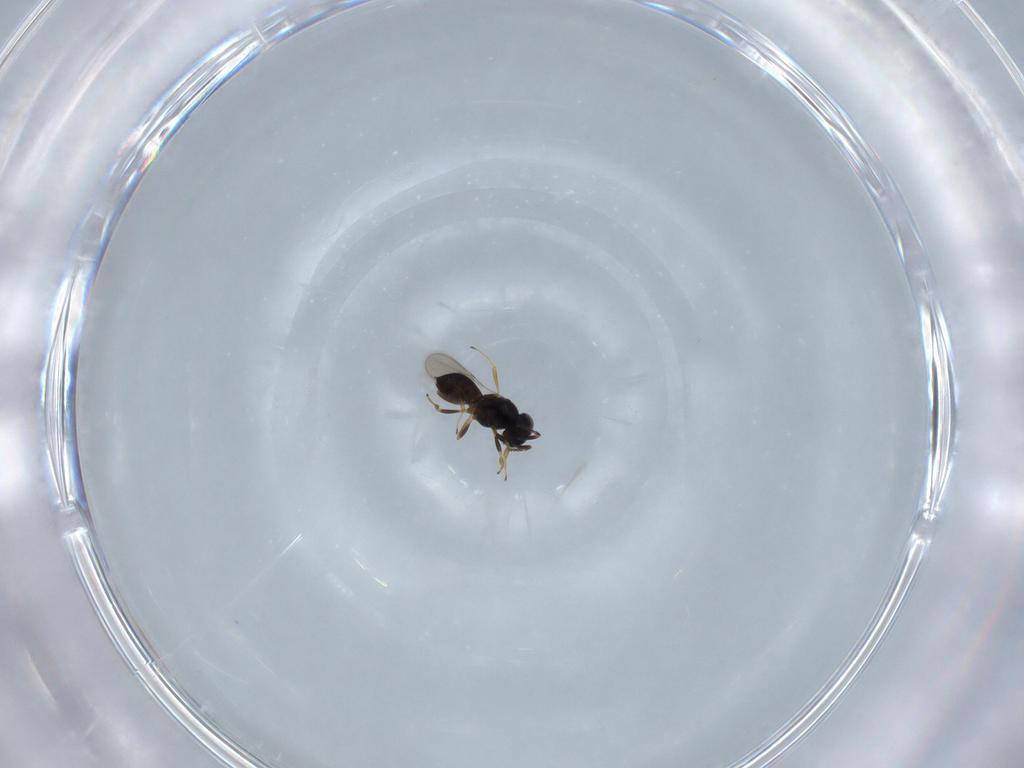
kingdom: Animalia
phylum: Arthropoda
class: Insecta
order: Hymenoptera
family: Scelionidae
